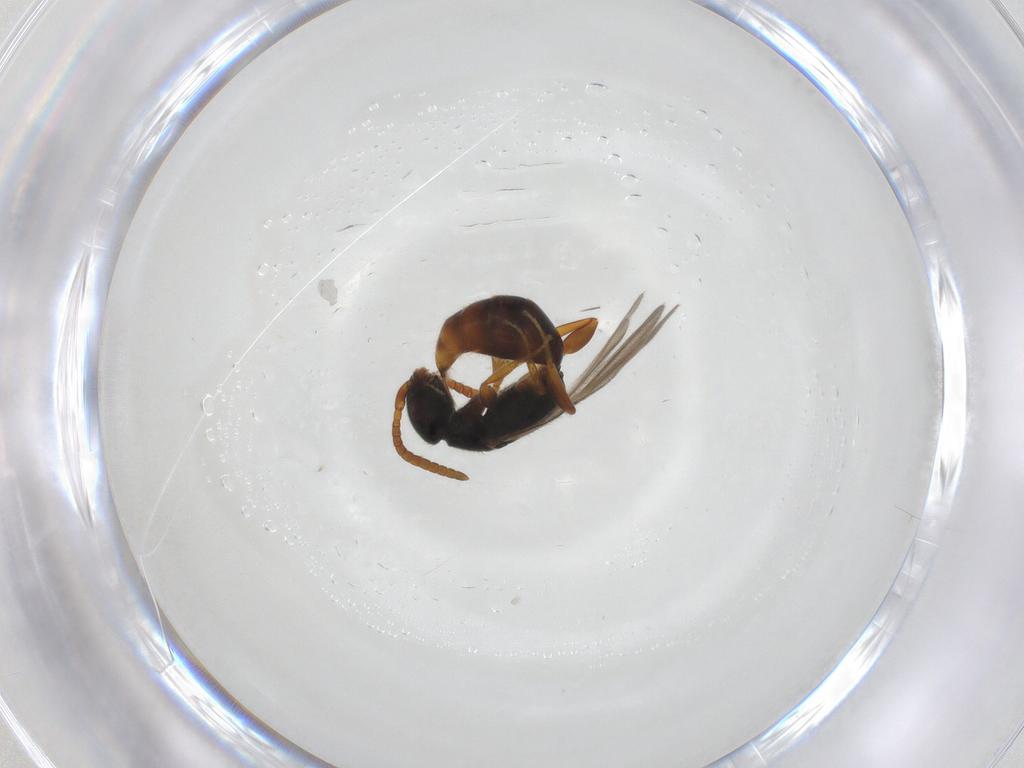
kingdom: Animalia
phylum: Arthropoda
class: Insecta
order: Hymenoptera
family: Bethylidae
